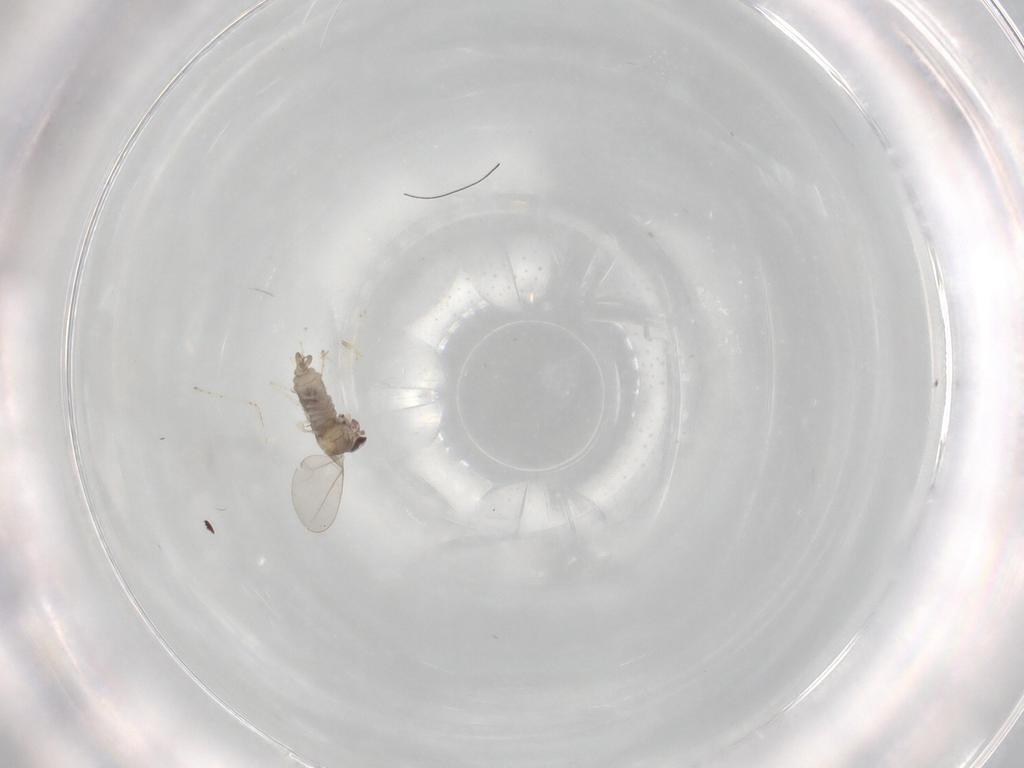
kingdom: Animalia
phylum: Arthropoda
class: Insecta
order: Diptera
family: Cecidomyiidae
